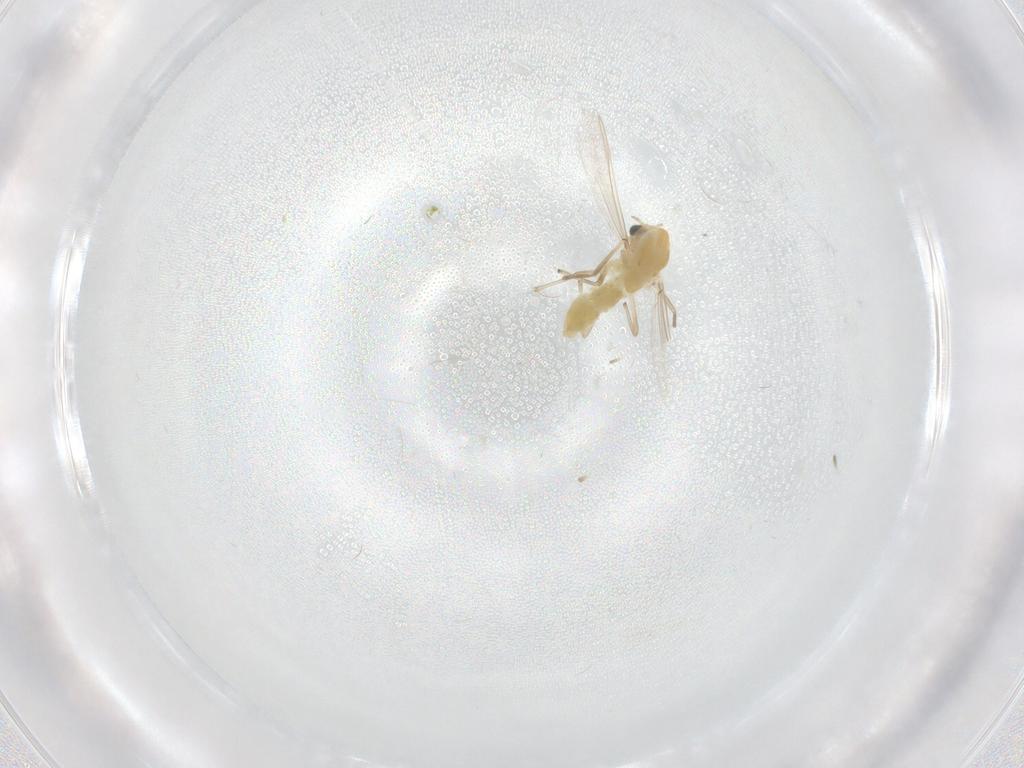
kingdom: Animalia
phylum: Arthropoda
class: Insecta
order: Diptera
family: Chironomidae
